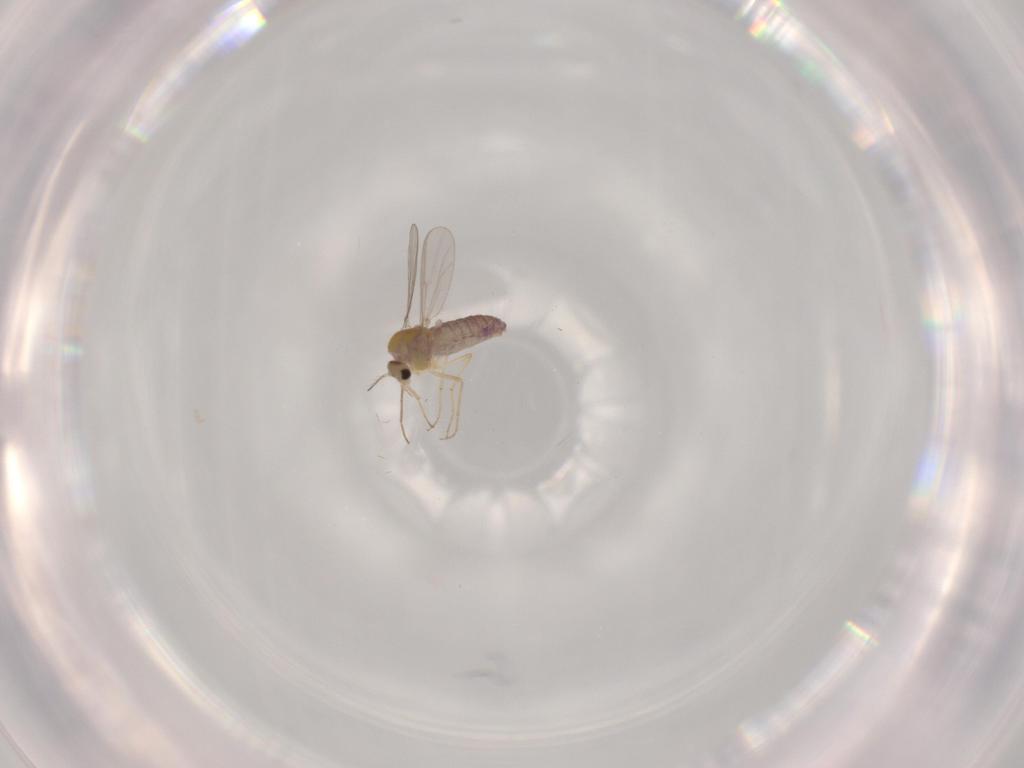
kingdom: Animalia
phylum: Arthropoda
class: Insecta
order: Diptera
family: Chironomidae
